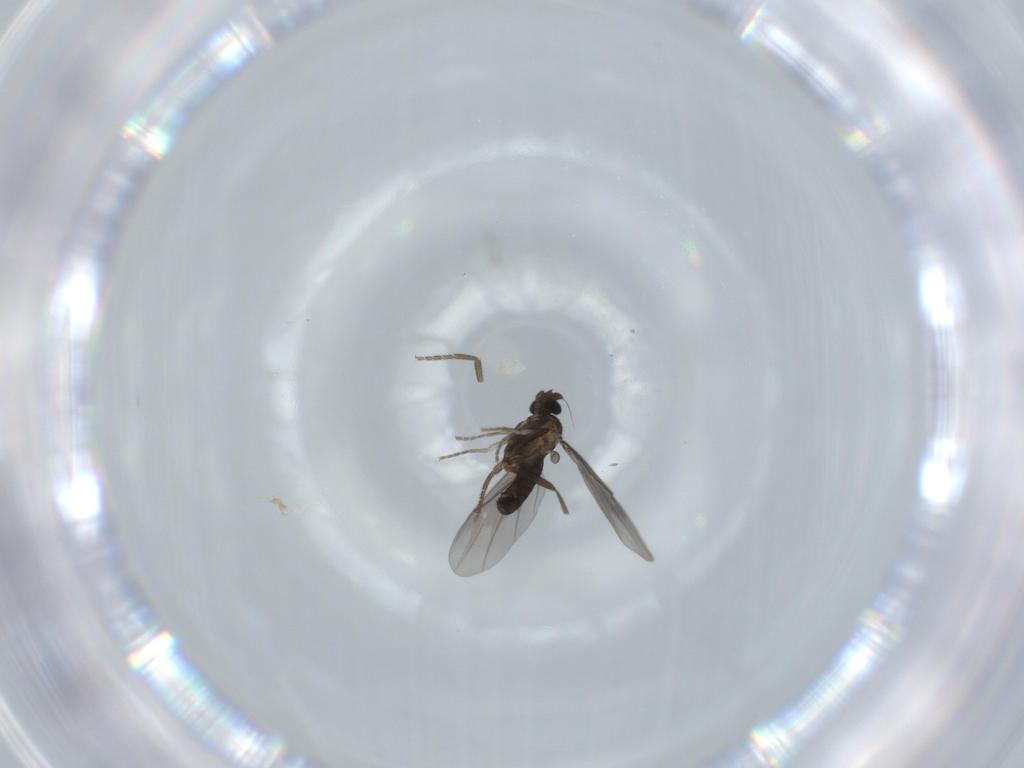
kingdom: Animalia
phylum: Arthropoda
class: Insecta
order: Diptera
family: Phoridae
